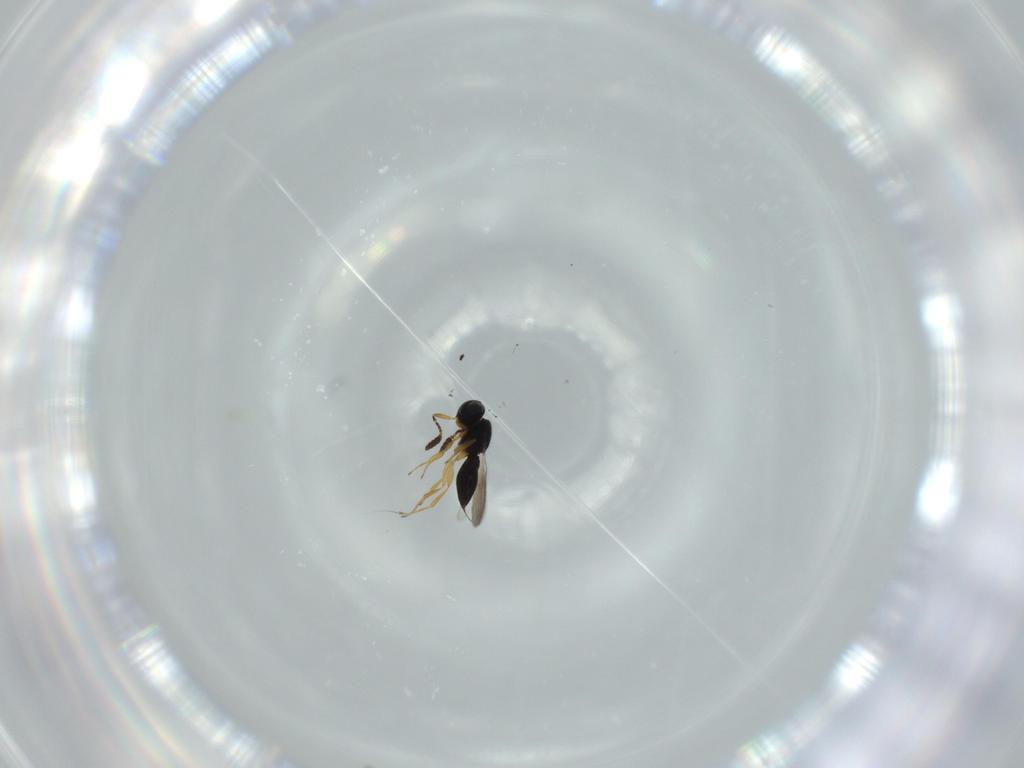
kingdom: Animalia
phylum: Arthropoda
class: Insecta
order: Hymenoptera
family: Scelionidae
